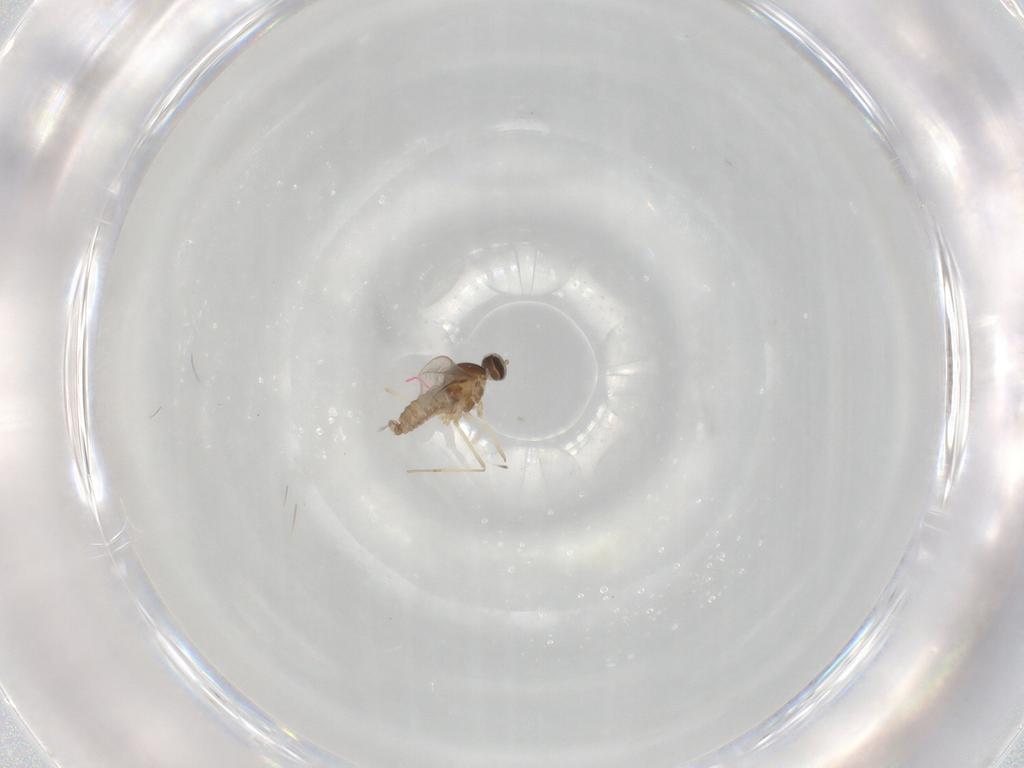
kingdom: Animalia
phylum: Arthropoda
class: Insecta
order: Diptera
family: Cecidomyiidae
